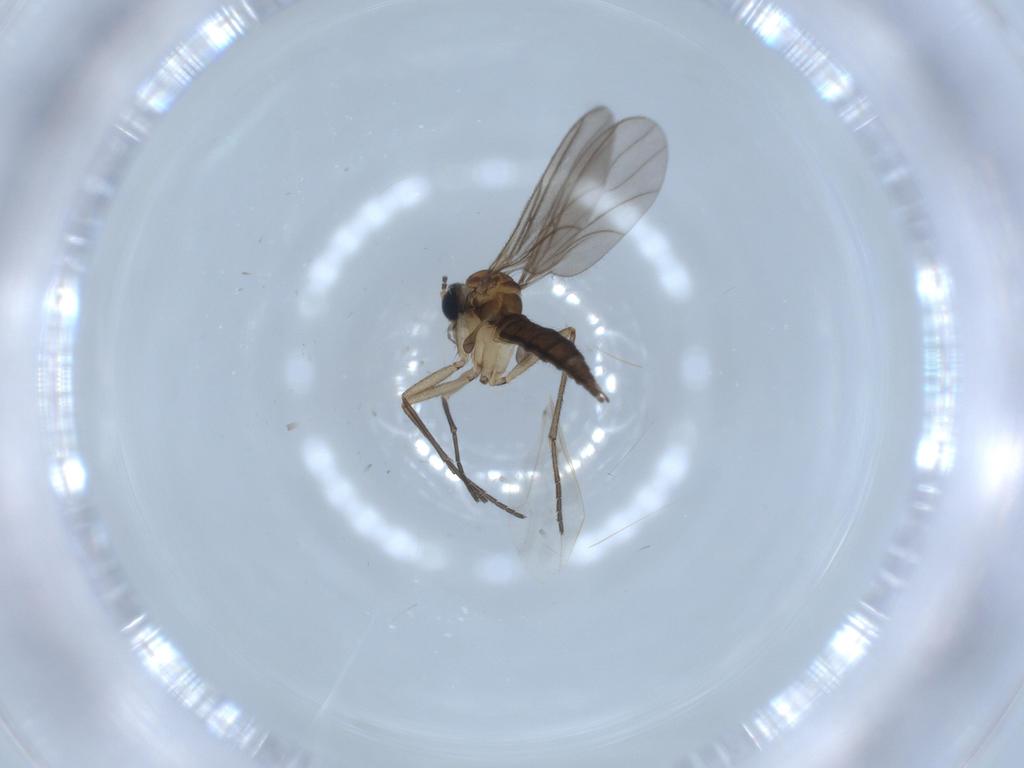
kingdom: Animalia
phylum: Arthropoda
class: Insecta
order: Diptera
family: Sciaridae
